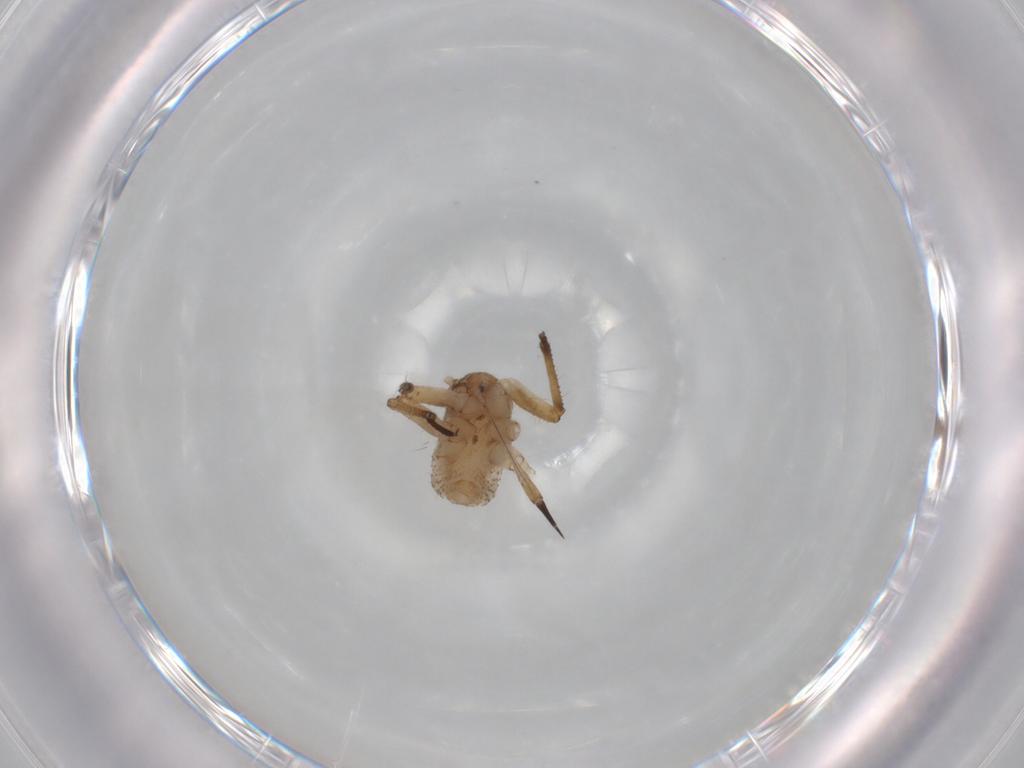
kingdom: Animalia
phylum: Arthropoda
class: Insecta
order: Hemiptera
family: Aphididae
